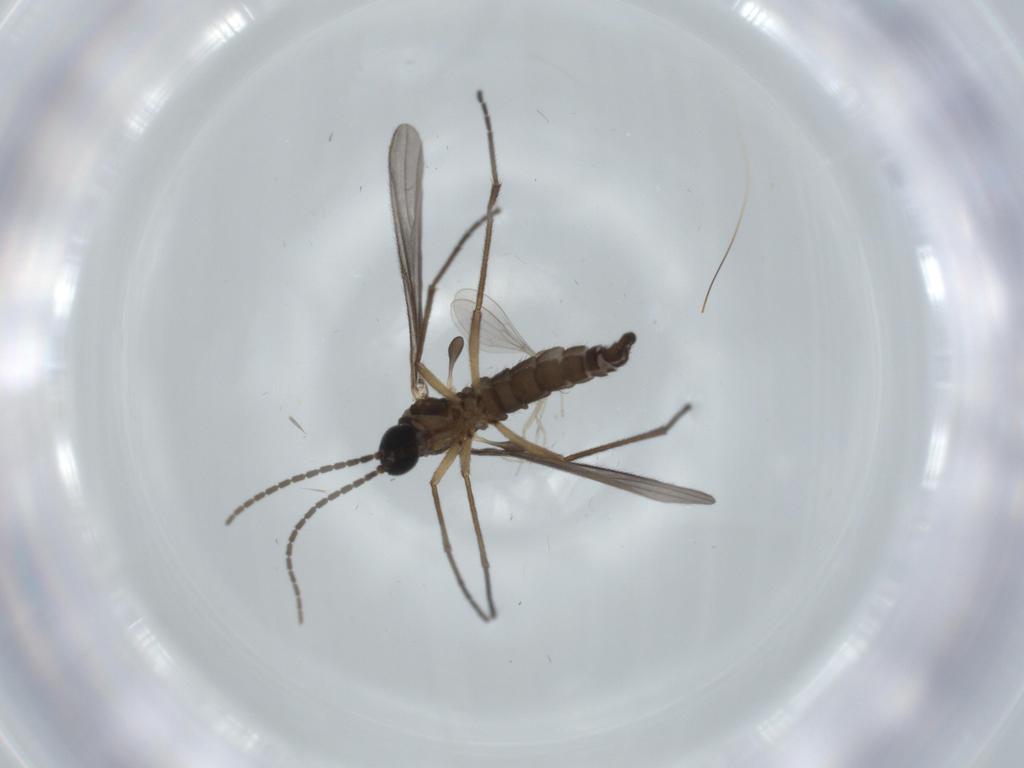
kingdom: Animalia
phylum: Arthropoda
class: Insecta
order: Diptera
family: Cecidomyiidae
